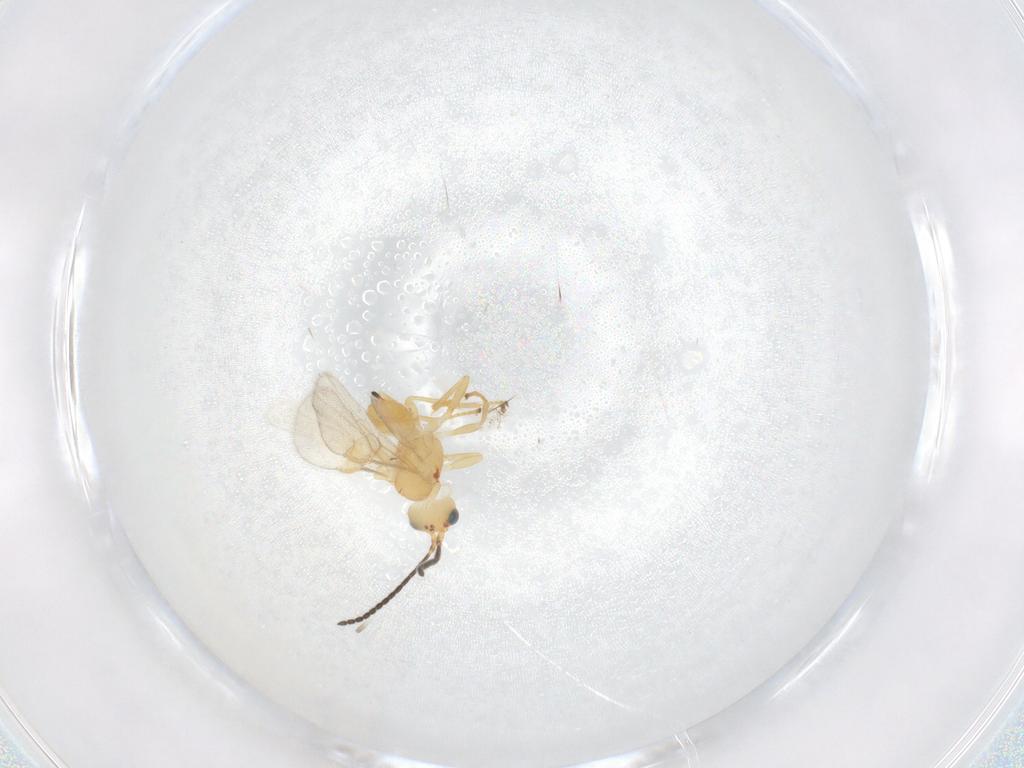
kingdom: Animalia
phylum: Arthropoda
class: Insecta
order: Hymenoptera
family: Braconidae
